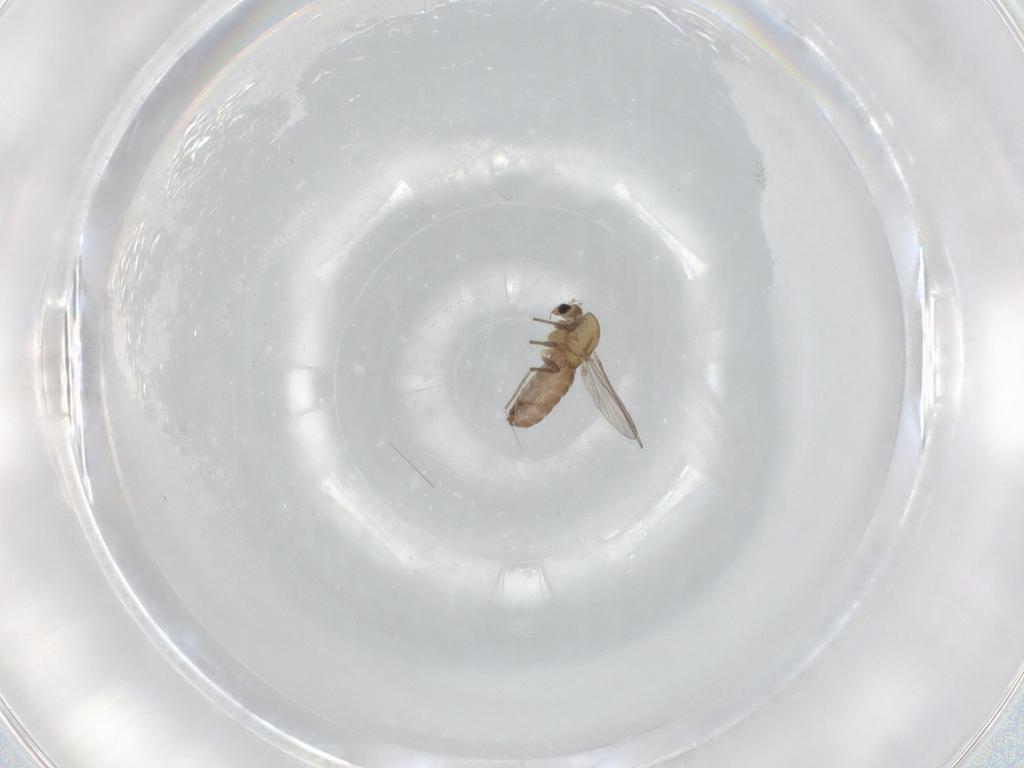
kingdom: Animalia
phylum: Arthropoda
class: Insecta
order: Diptera
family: Chironomidae
